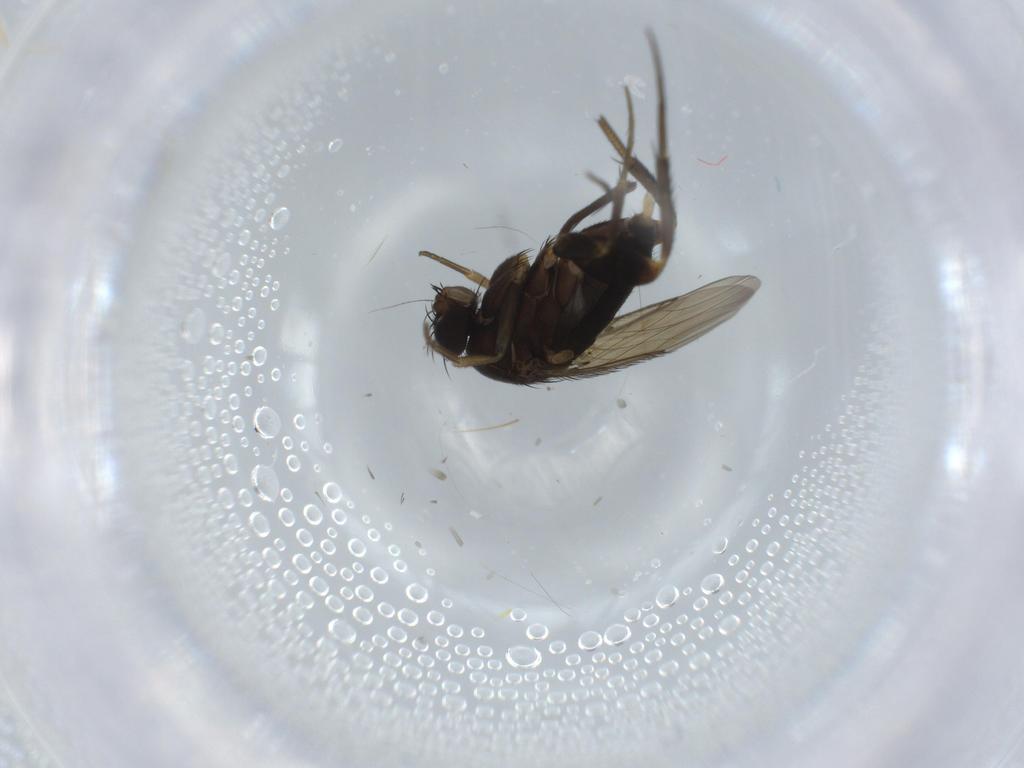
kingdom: Animalia
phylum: Arthropoda
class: Insecta
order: Diptera
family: Phoridae
